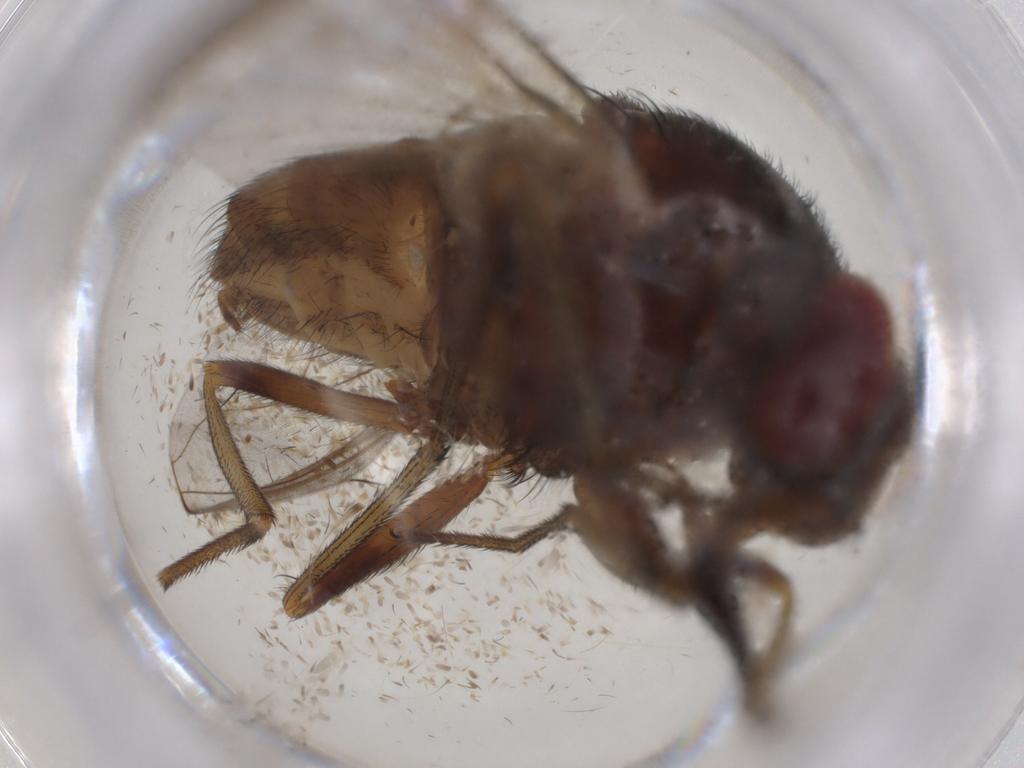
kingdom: Animalia
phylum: Arthropoda
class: Insecta
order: Diptera
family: Muscidae
